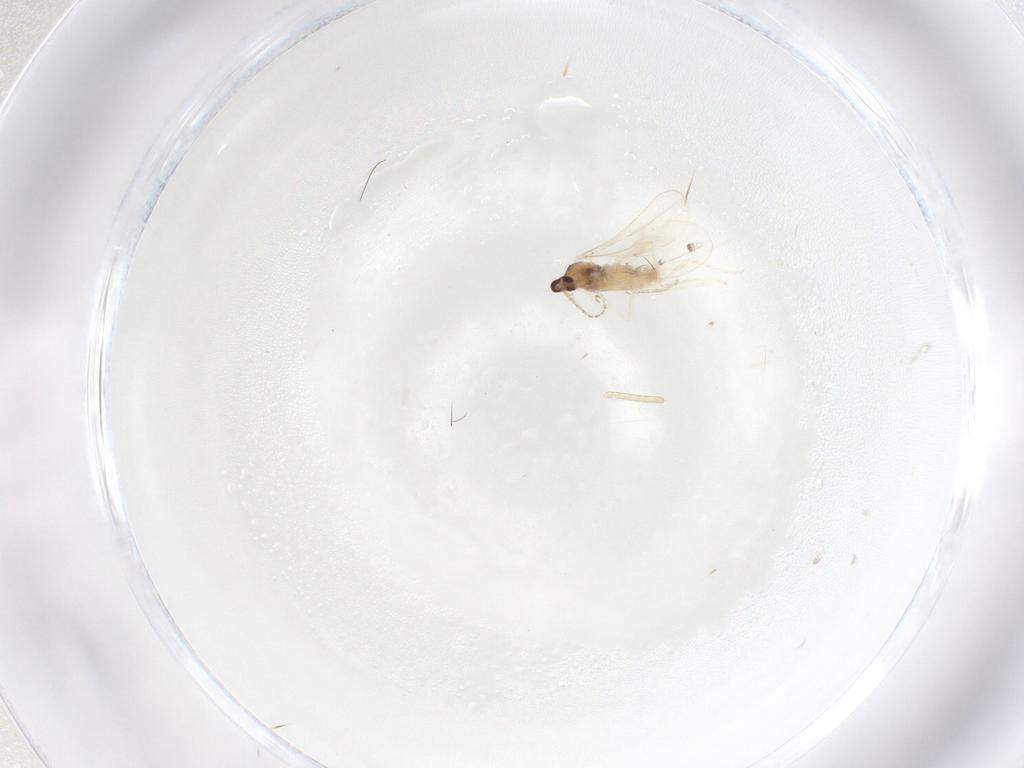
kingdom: Animalia
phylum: Arthropoda
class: Insecta
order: Diptera
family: Cecidomyiidae
